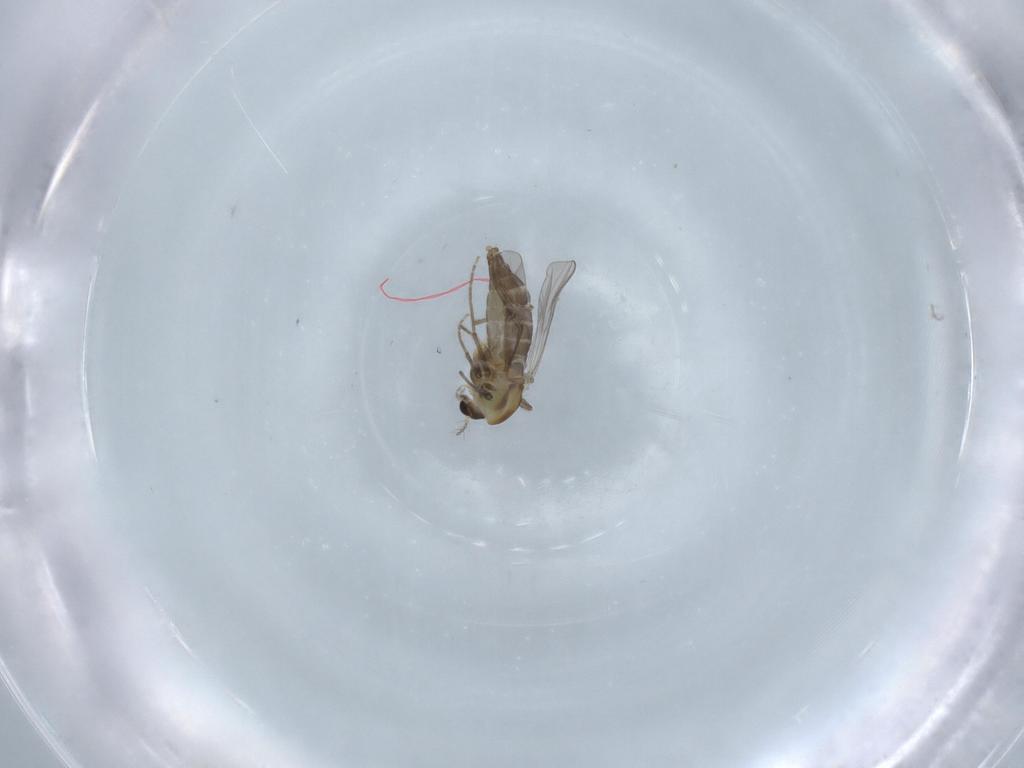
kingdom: Animalia
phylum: Arthropoda
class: Insecta
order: Diptera
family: Chironomidae
